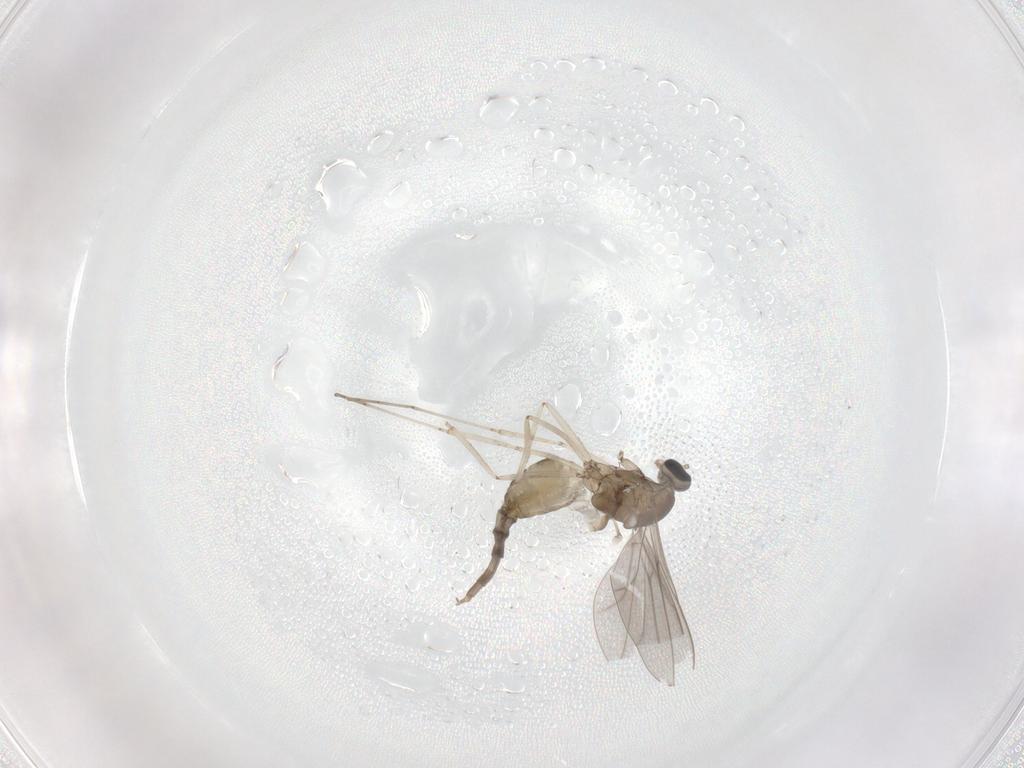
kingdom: Animalia
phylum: Arthropoda
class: Insecta
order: Diptera
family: Cecidomyiidae
